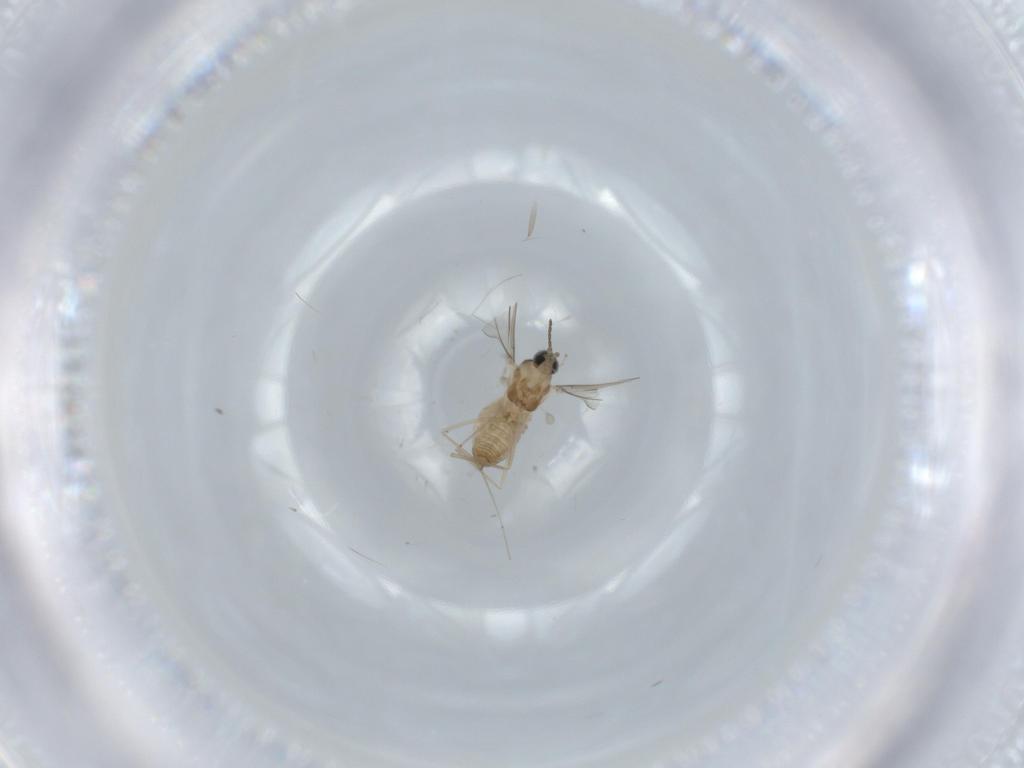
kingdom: Animalia
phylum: Arthropoda
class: Insecta
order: Diptera
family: Cecidomyiidae
